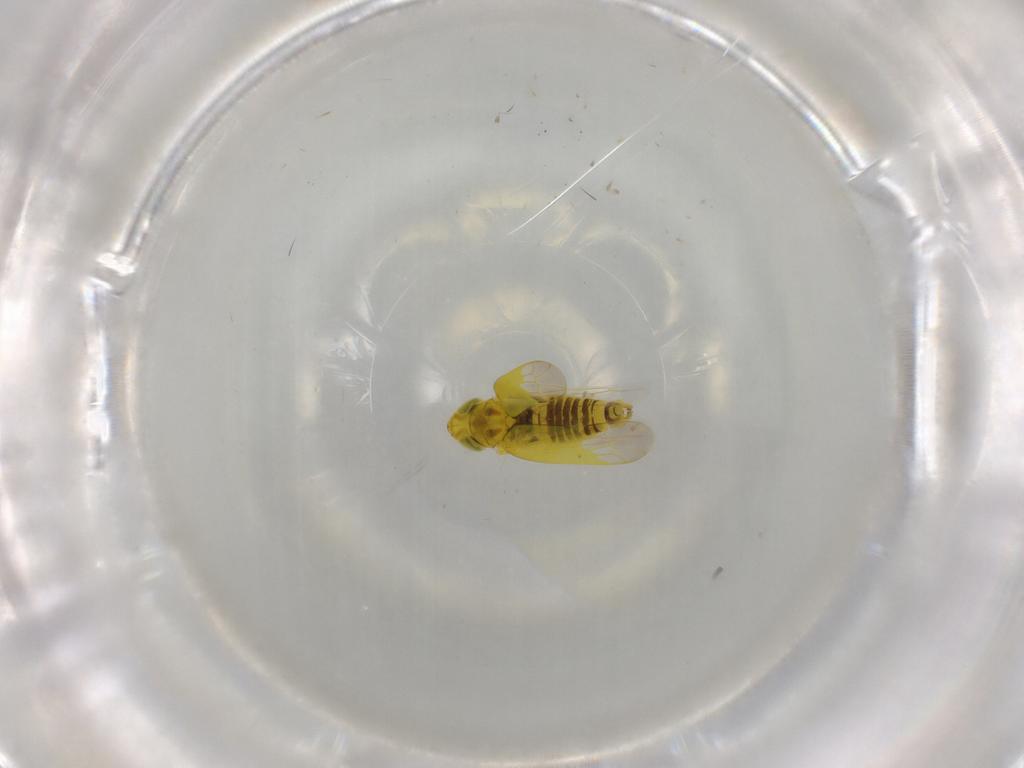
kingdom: Animalia
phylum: Arthropoda
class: Insecta
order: Hemiptera
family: Cicadellidae
